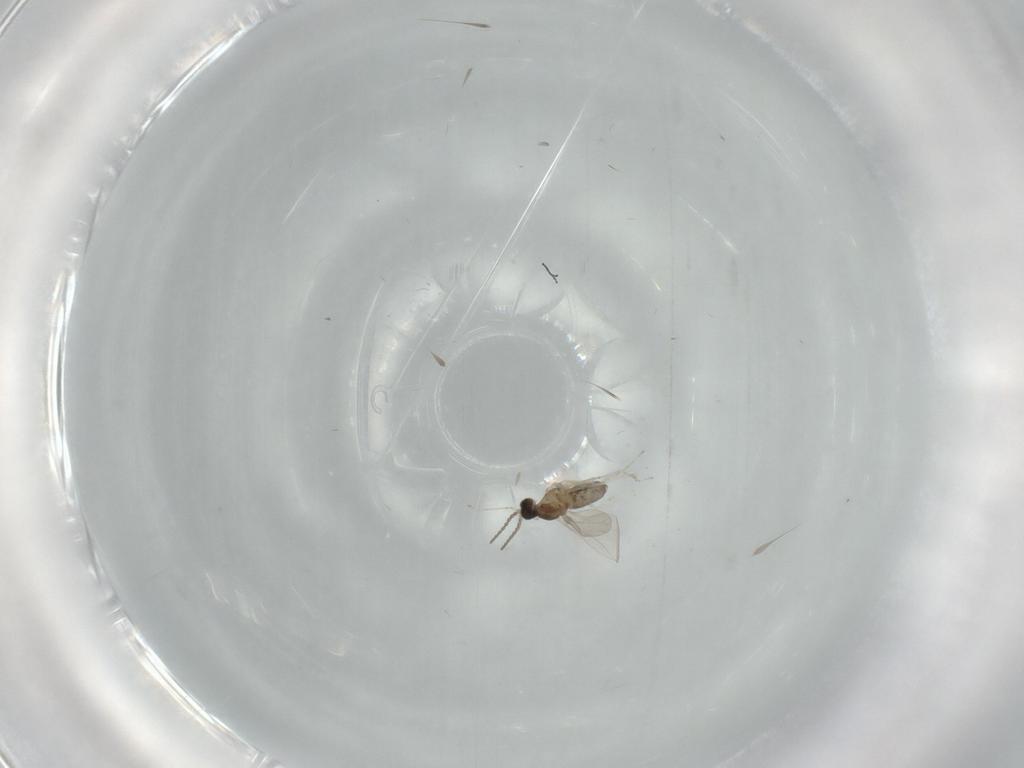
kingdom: Animalia
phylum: Arthropoda
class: Insecta
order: Diptera
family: Cecidomyiidae
